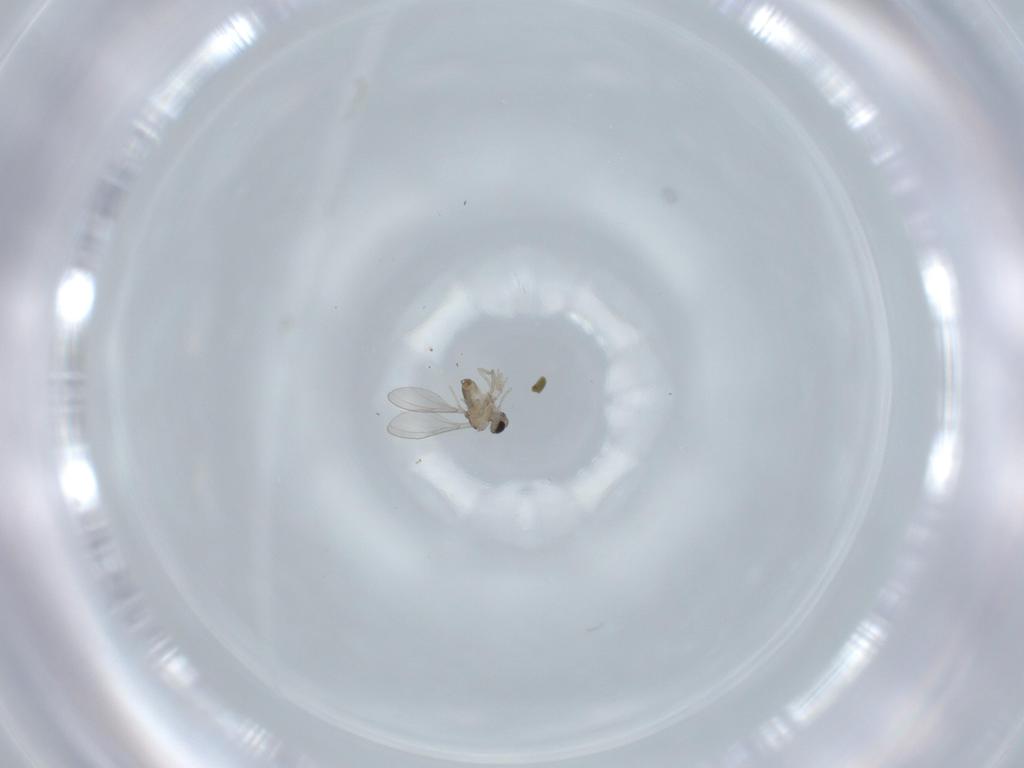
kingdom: Animalia
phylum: Arthropoda
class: Insecta
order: Diptera
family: Cecidomyiidae
